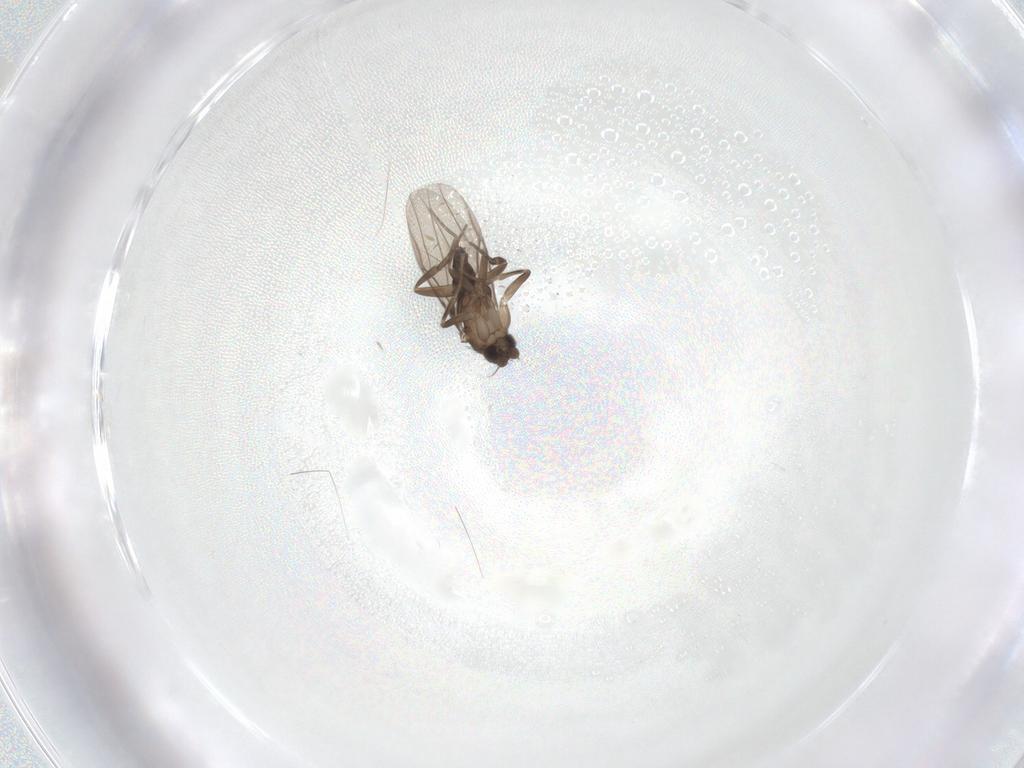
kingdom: Animalia
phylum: Arthropoda
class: Insecta
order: Diptera
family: Phoridae
